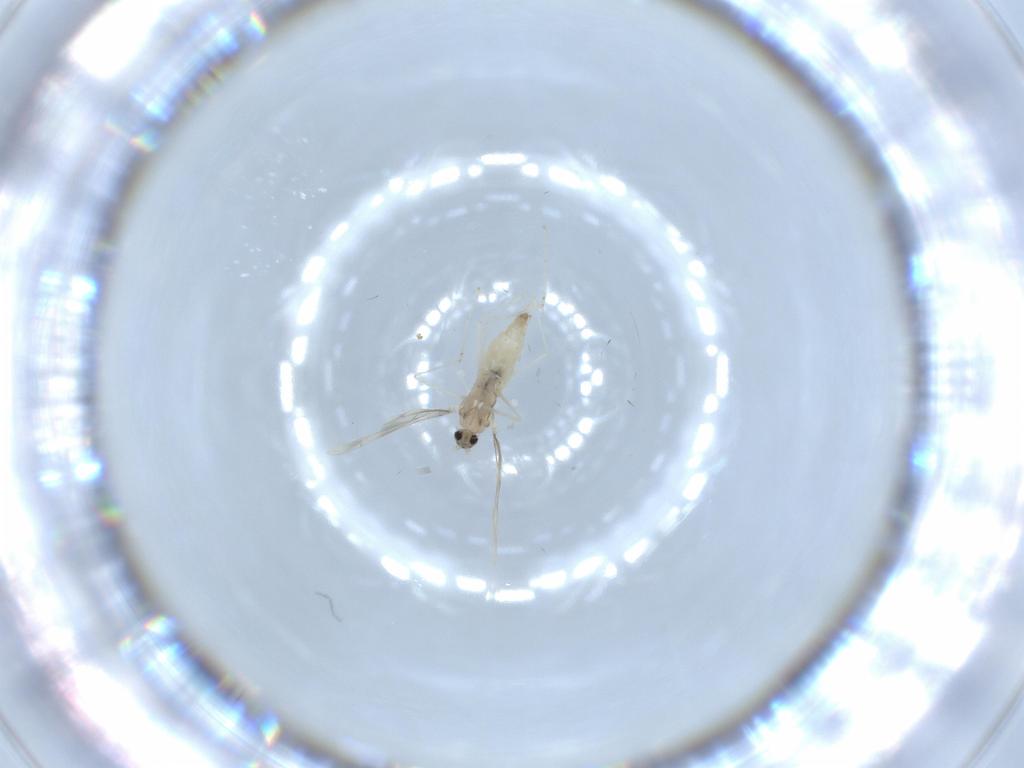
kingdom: Animalia
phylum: Arthropoda
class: Insecta
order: Diptera
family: Cecidomyiidae
